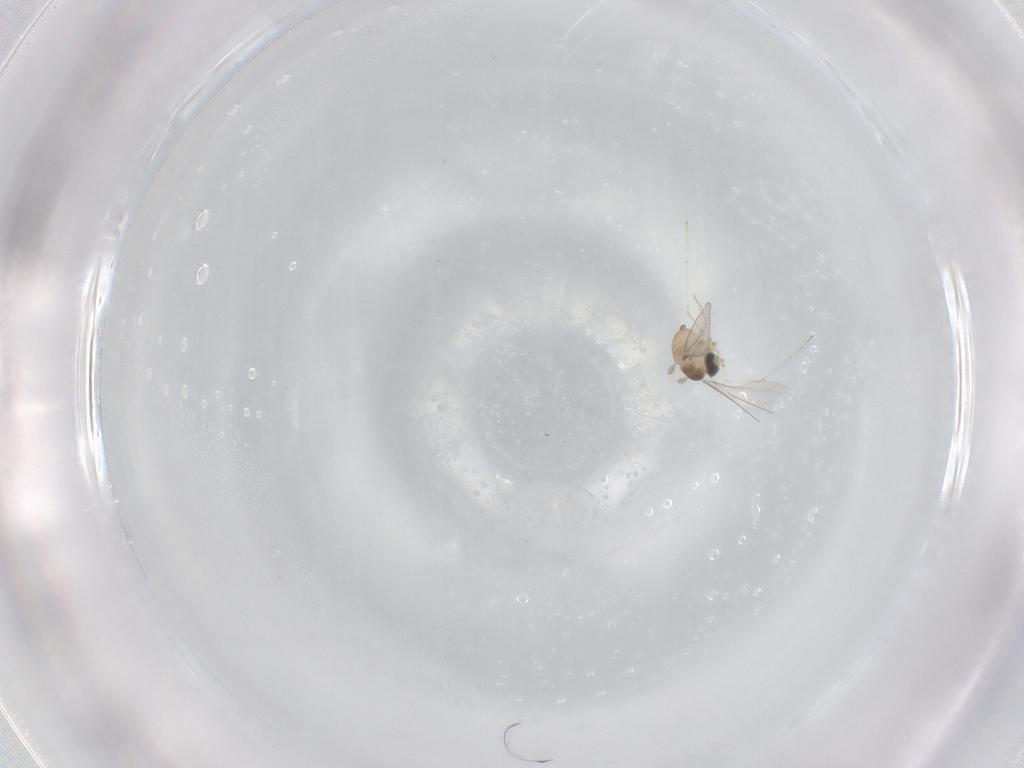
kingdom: Animalia
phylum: Arthropoda
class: Insecta
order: Diptera
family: Cecidomyiidae
